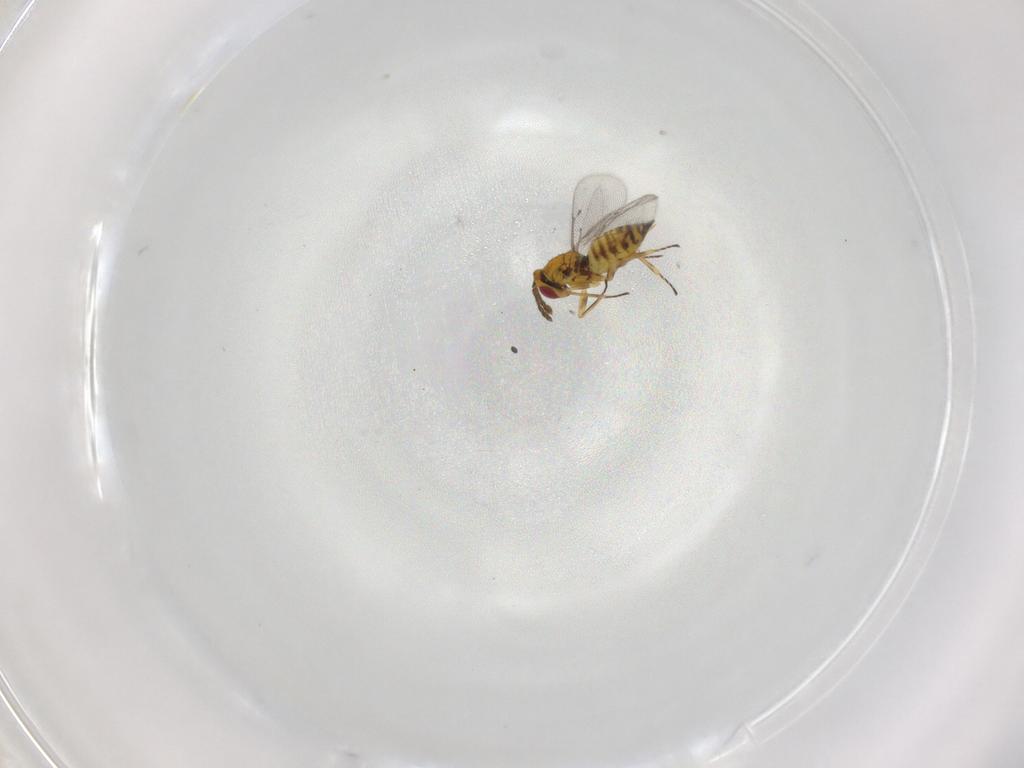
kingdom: Animalia
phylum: Arthropoda
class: Insecta
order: Hymenoptera
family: Eulophidae
